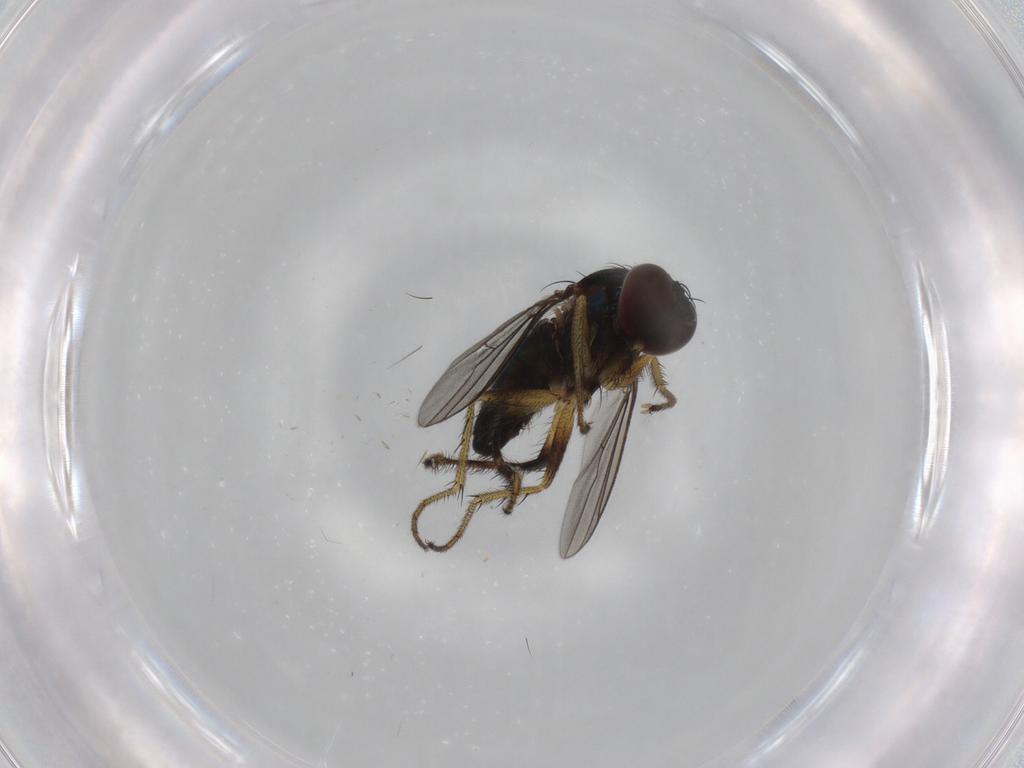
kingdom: Animalia
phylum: Arthropoda
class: Insecta
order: Diptera
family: Dolichopodidae
